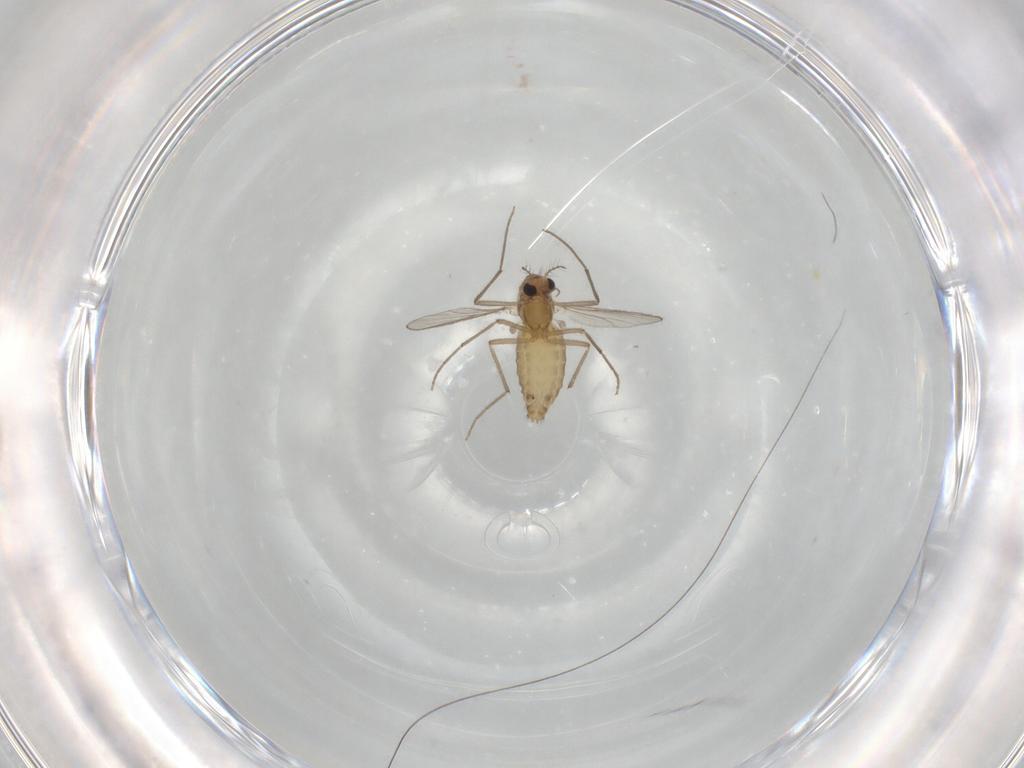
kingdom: Animalia
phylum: Arthropoda
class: Insecta
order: Diptera
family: Chironomidae
